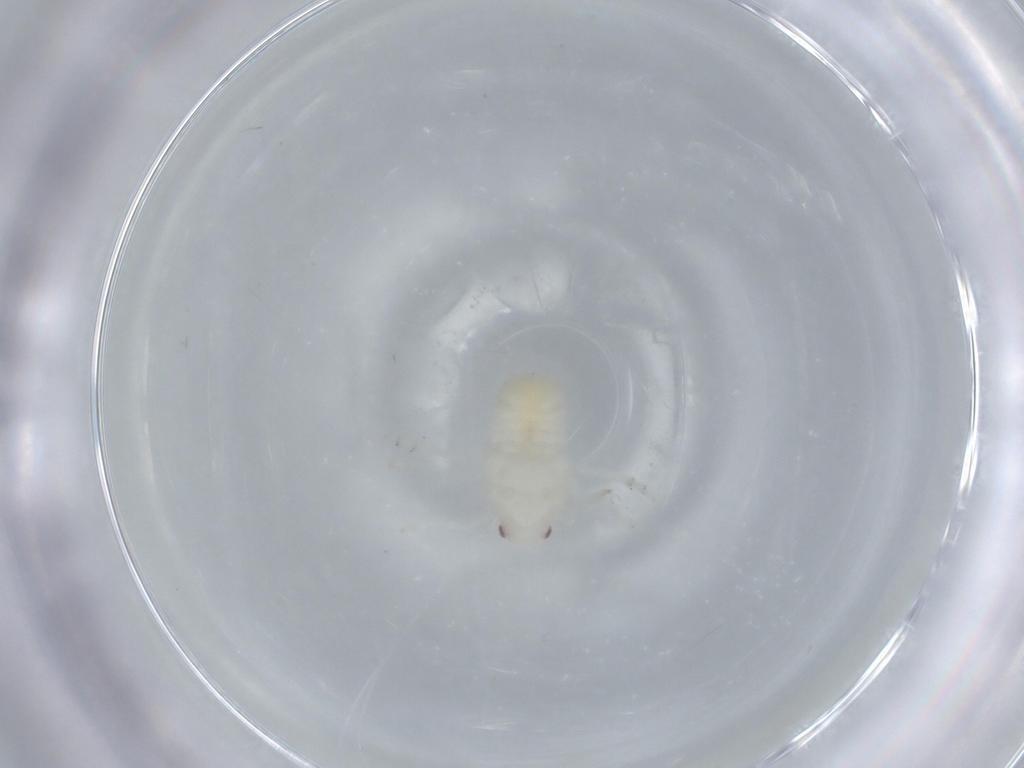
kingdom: Animalia
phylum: Arthropoda
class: Insecta
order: Hemiptera
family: Flatidae
